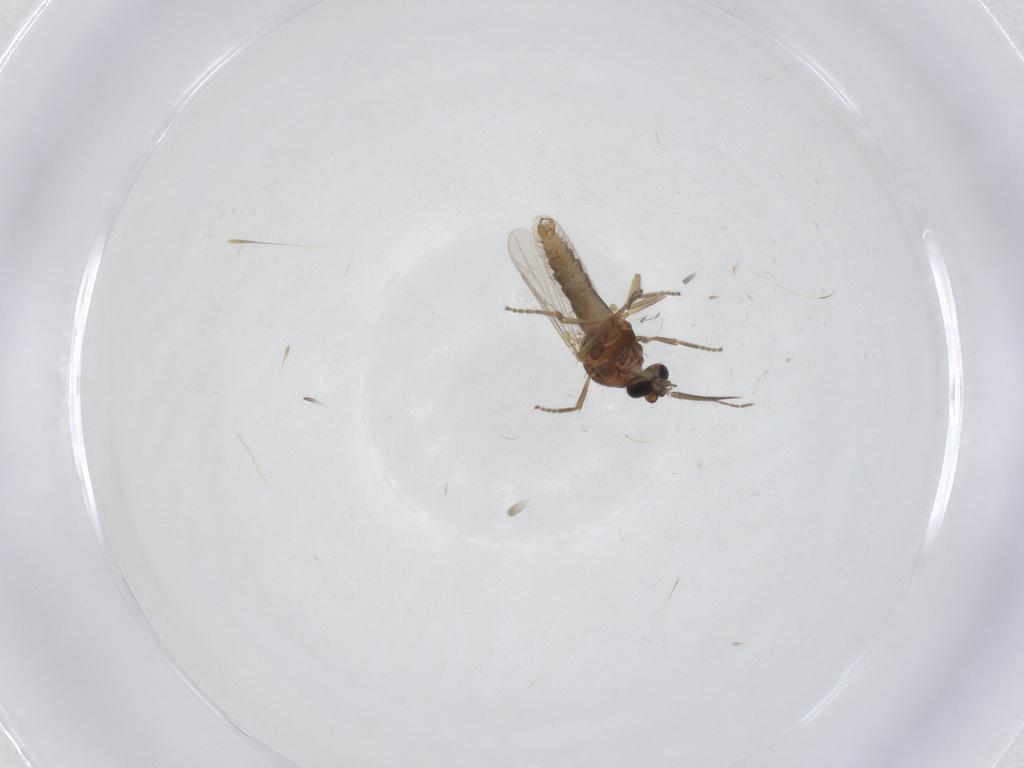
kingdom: Animalia
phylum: Arthropoda
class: Insecta
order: Diptera
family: Ceratopogonidae
